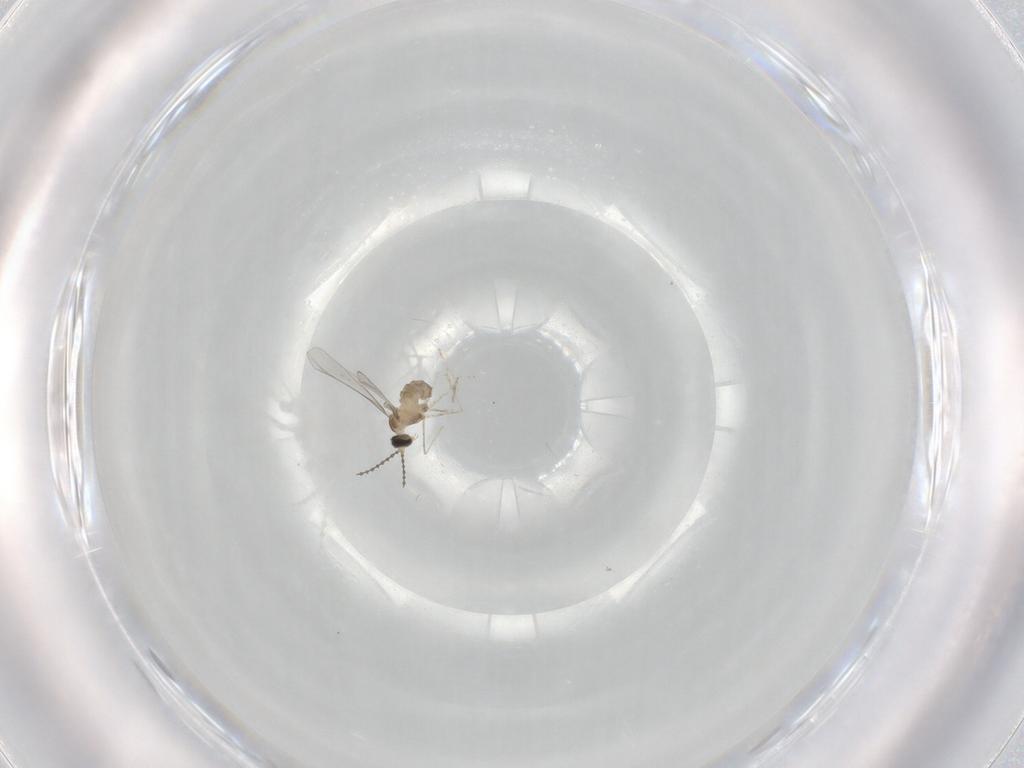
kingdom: Animalia
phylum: Arthropoda
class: Insecta
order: Diptera
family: Cecidomyiidae
